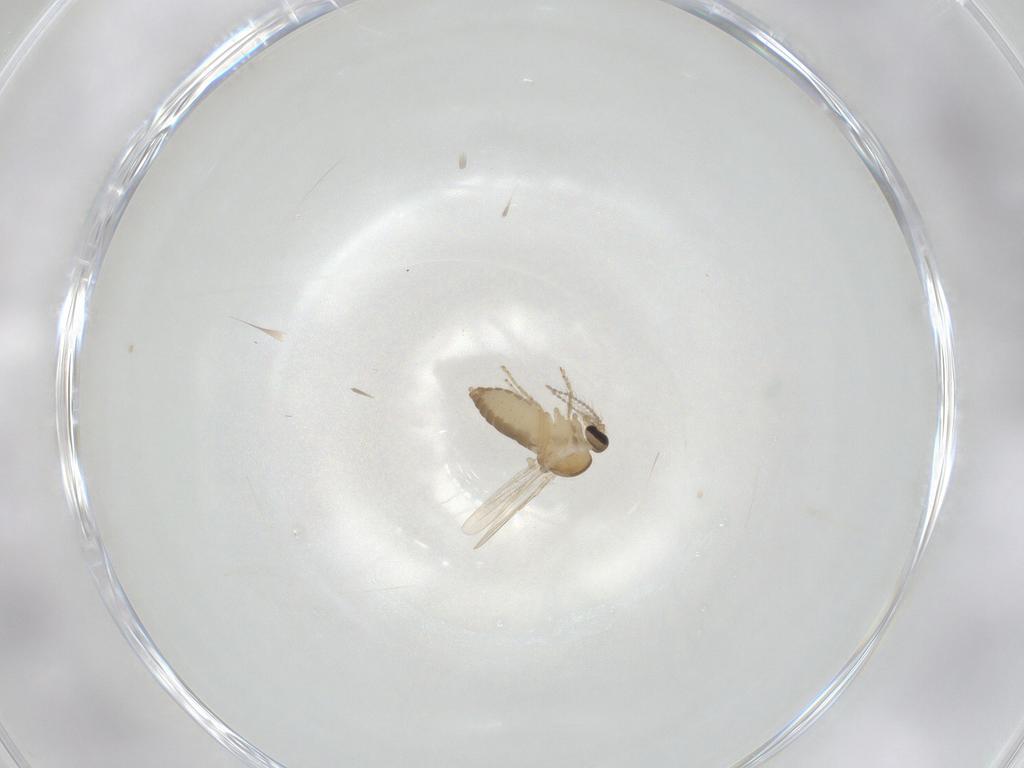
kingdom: Animalia
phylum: Arthropoda
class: Insecta
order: Diptera
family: Ceratopogonidae
